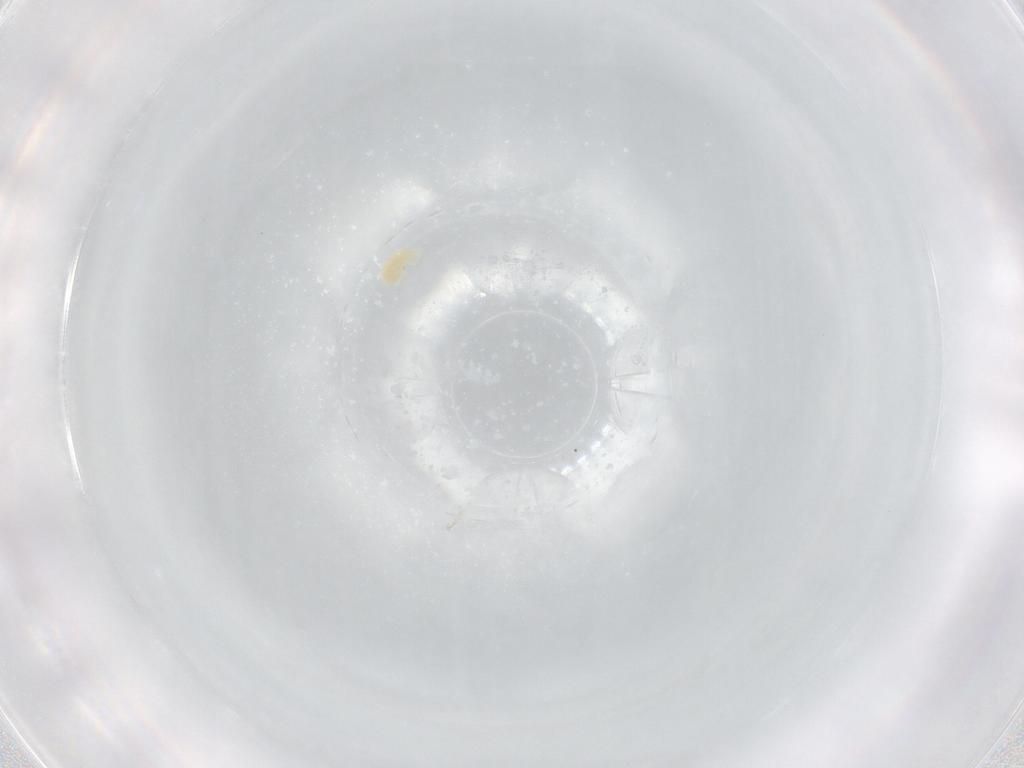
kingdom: Animalia
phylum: Arthropoda
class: Arachnida
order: Trombidiformes
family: Eupodidae
